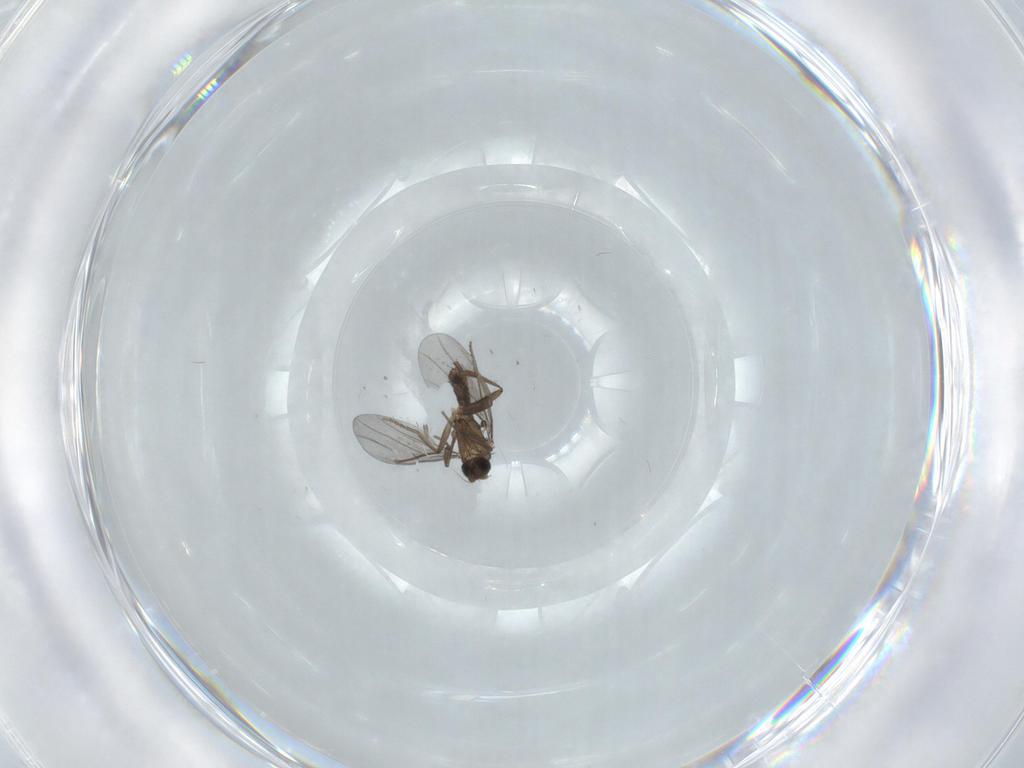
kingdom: Animalia
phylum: Arthropoda
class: Insecta
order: Diptera
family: Phoridae
